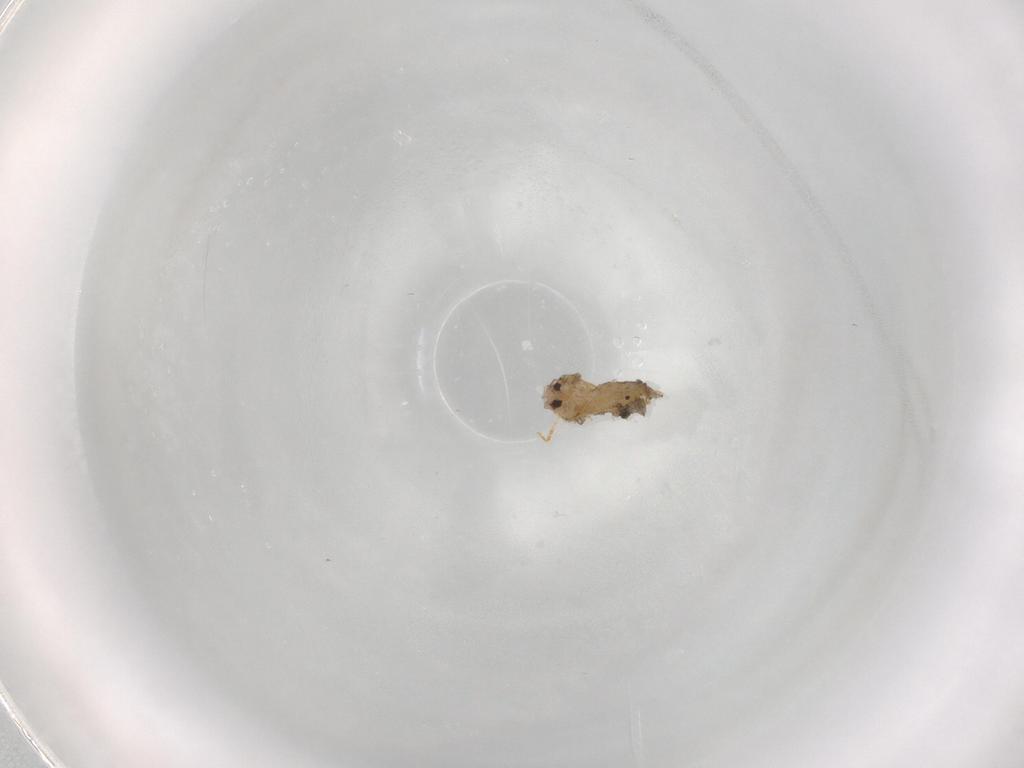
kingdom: Animalia
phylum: Arthropoda
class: Insecta
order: Hemiptera
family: Aleyrodidae
